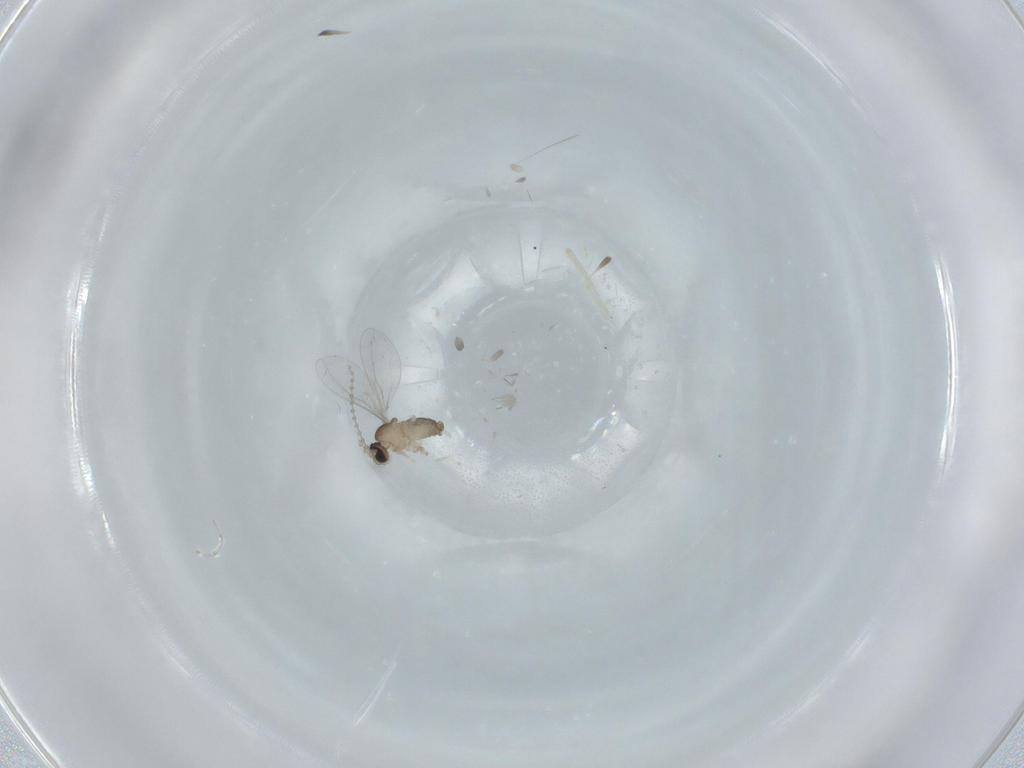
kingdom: Animalia
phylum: Arthropoda
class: Insecta
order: Diptera
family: Cecidomyiidae
